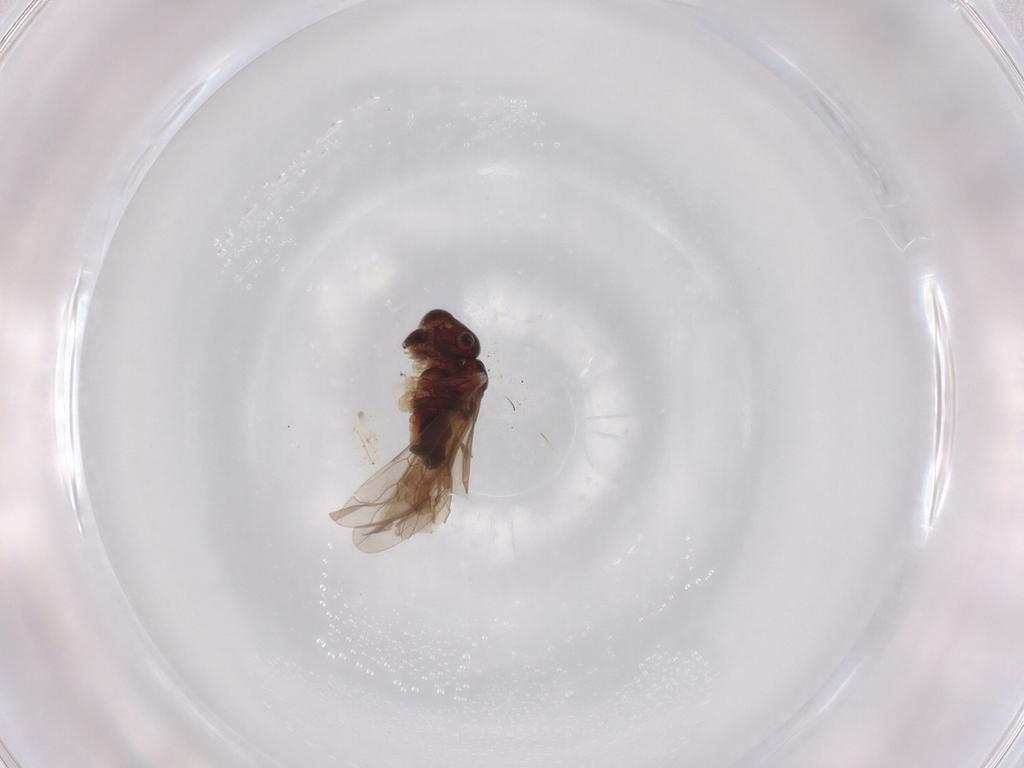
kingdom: Animalia
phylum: Arthropoda
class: Insecta
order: Psocodea
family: Caeciliusidae
